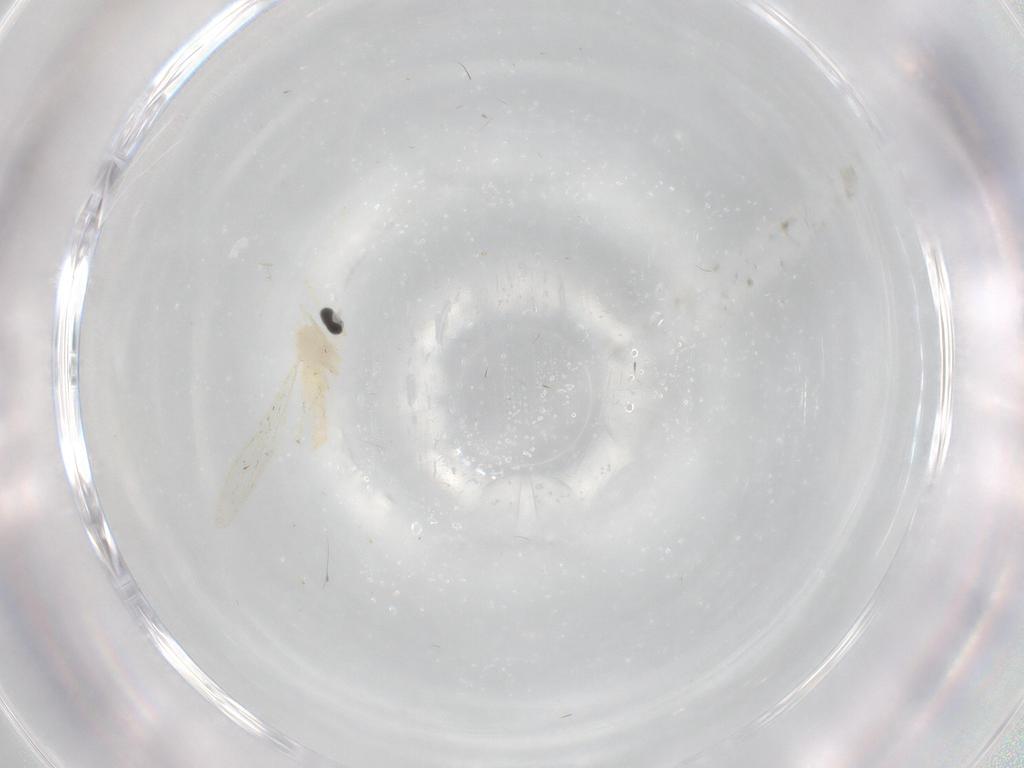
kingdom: Animalia
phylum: Arthropoda
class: Insecta
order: Diptera
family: Cecidomyiidae
